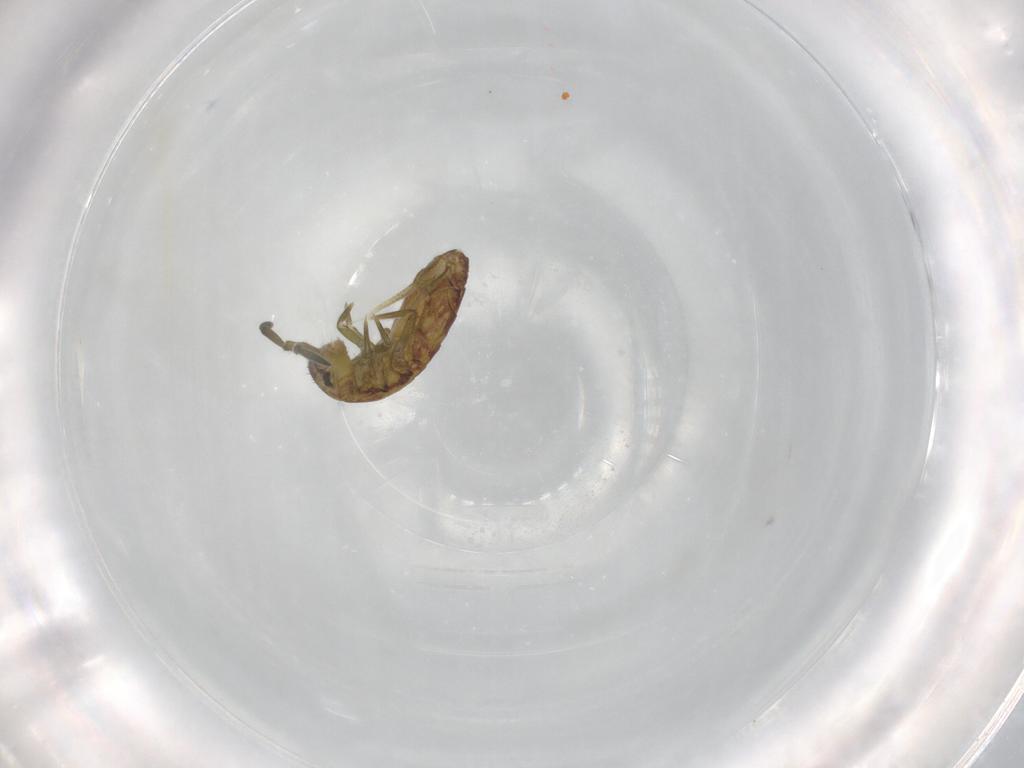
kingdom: Animalia
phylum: Arthropoda
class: Collembola
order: Entomobryomorpha
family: Isotomidae
